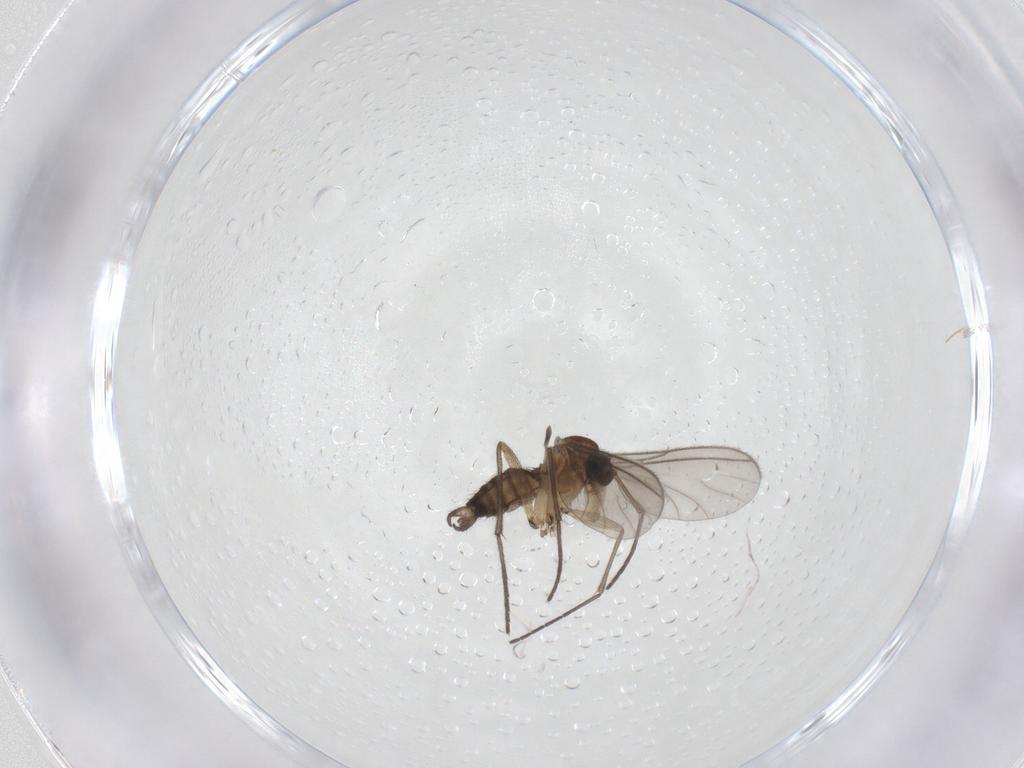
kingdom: Animalia
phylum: Arthropoda
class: Insecta
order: Diptera
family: Sciaridae
